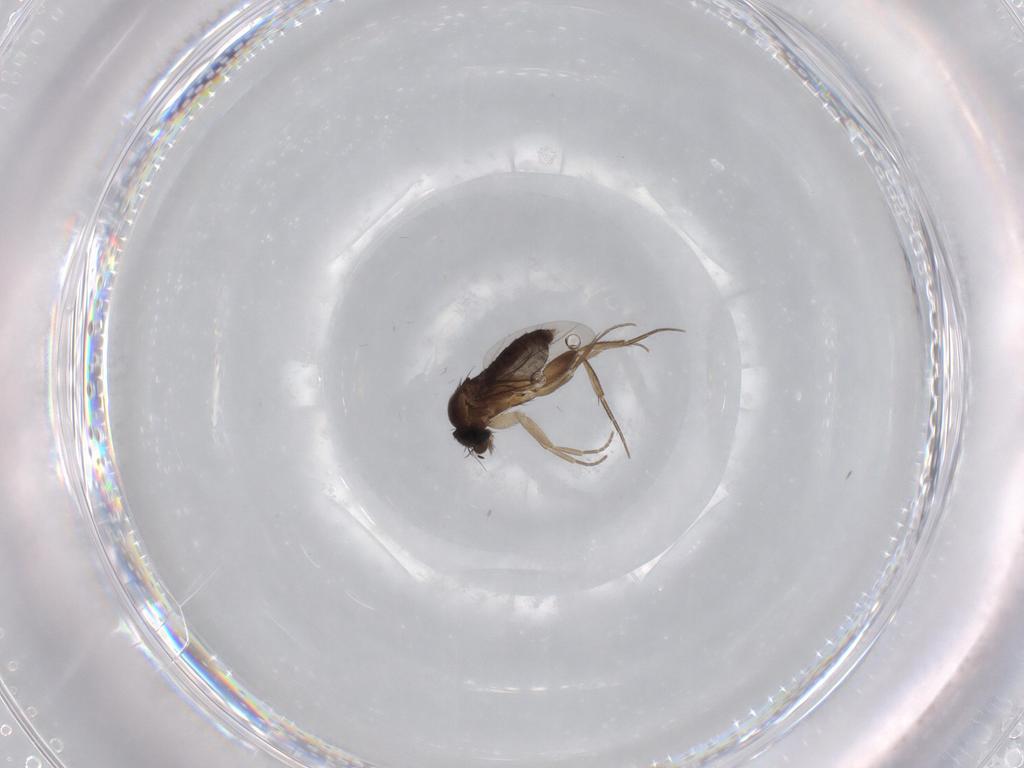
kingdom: Animalia
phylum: Arthropoda
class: Insecta
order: Diptera
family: Phoridae
